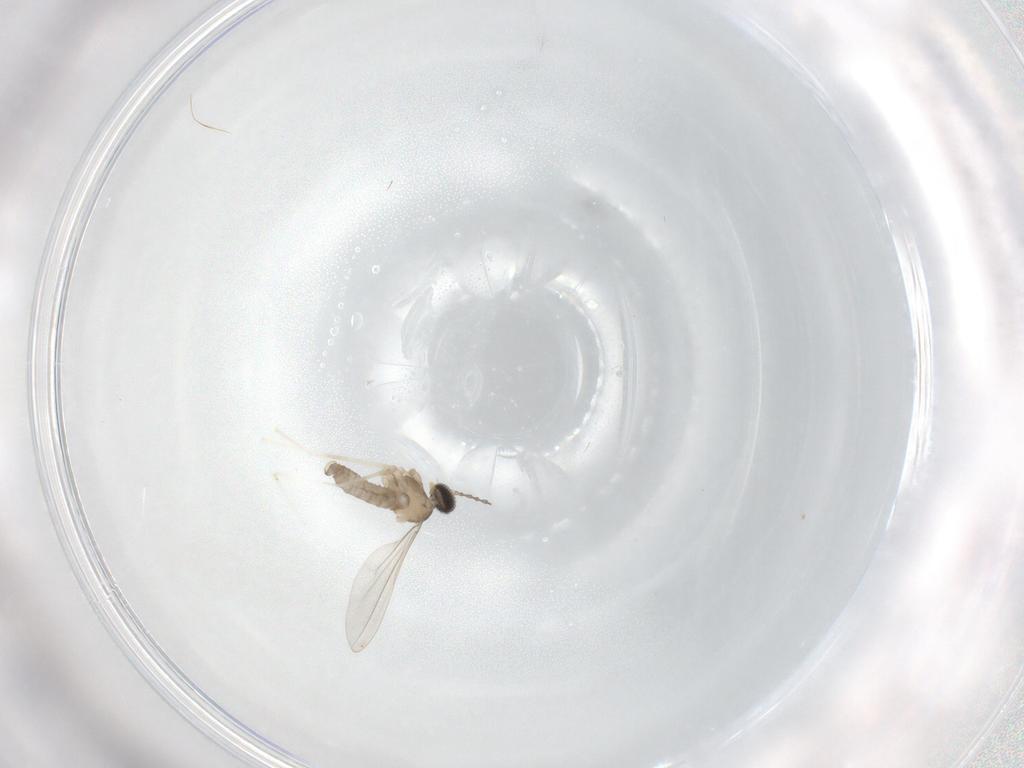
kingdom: Animalia
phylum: Arthropoda
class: Insecta
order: Diptera
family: Cecidomyiidae
